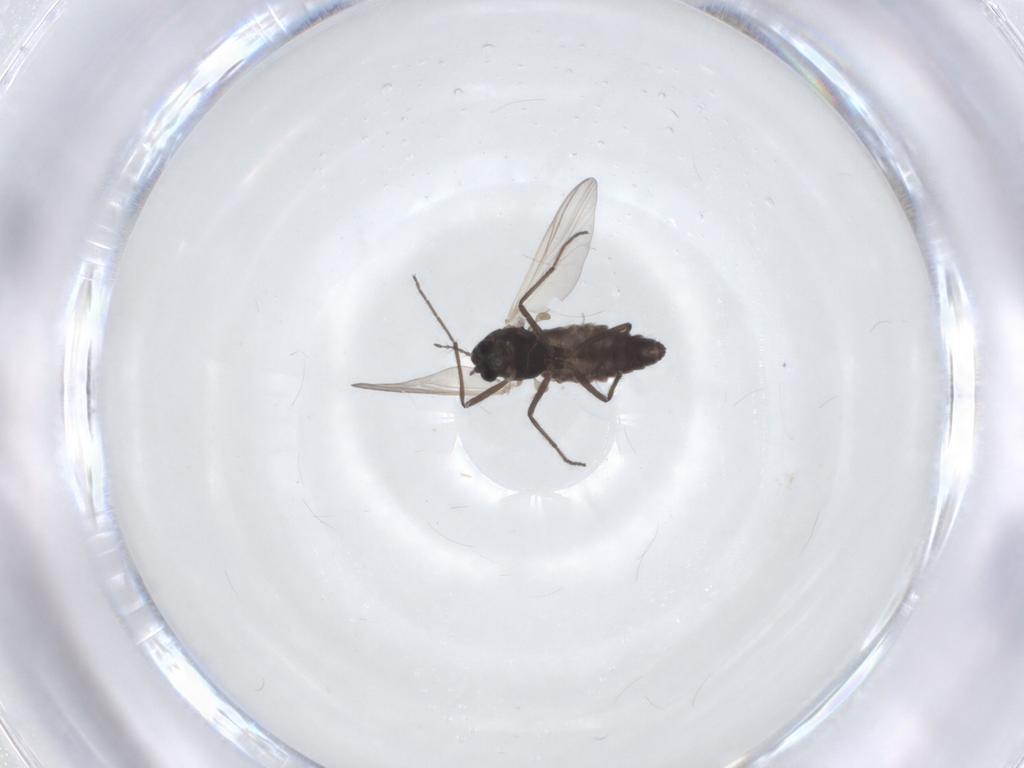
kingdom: Animalia
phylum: Arthropoda
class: Insecta
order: Diptera
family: Chironomidae
